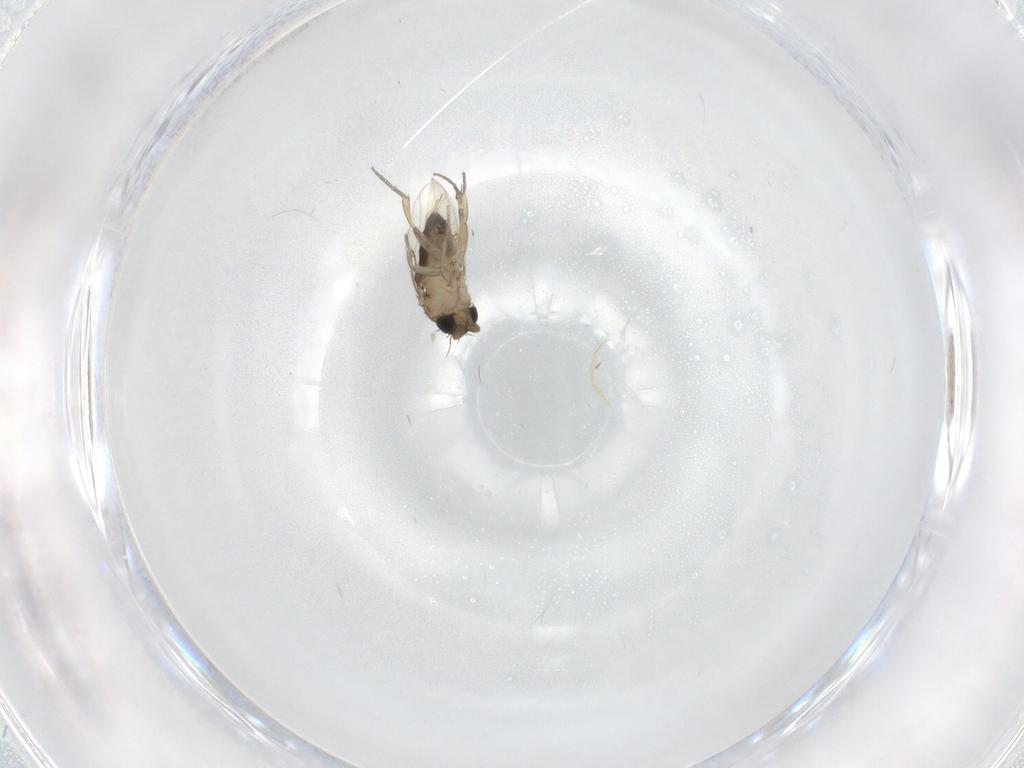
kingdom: Animalia
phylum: Arthropoda
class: Insecta
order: Diptera
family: Phoridae
